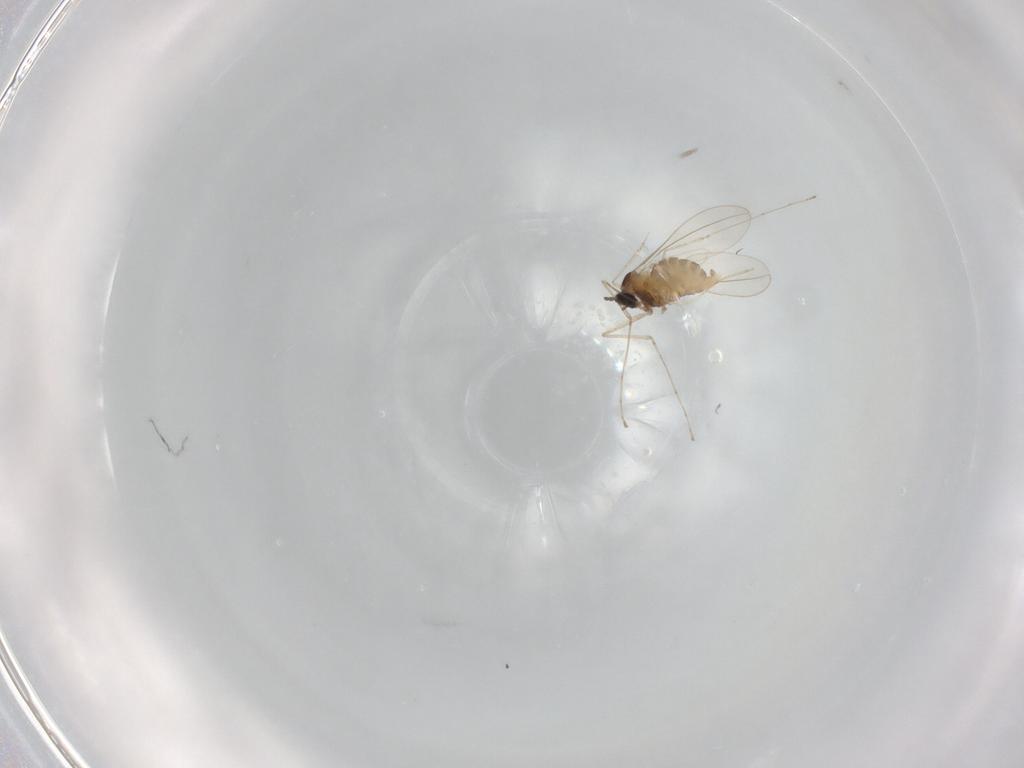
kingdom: Animalia
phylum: Arthropoda
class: Insecta
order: Diptera
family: Cecidomyiidae
